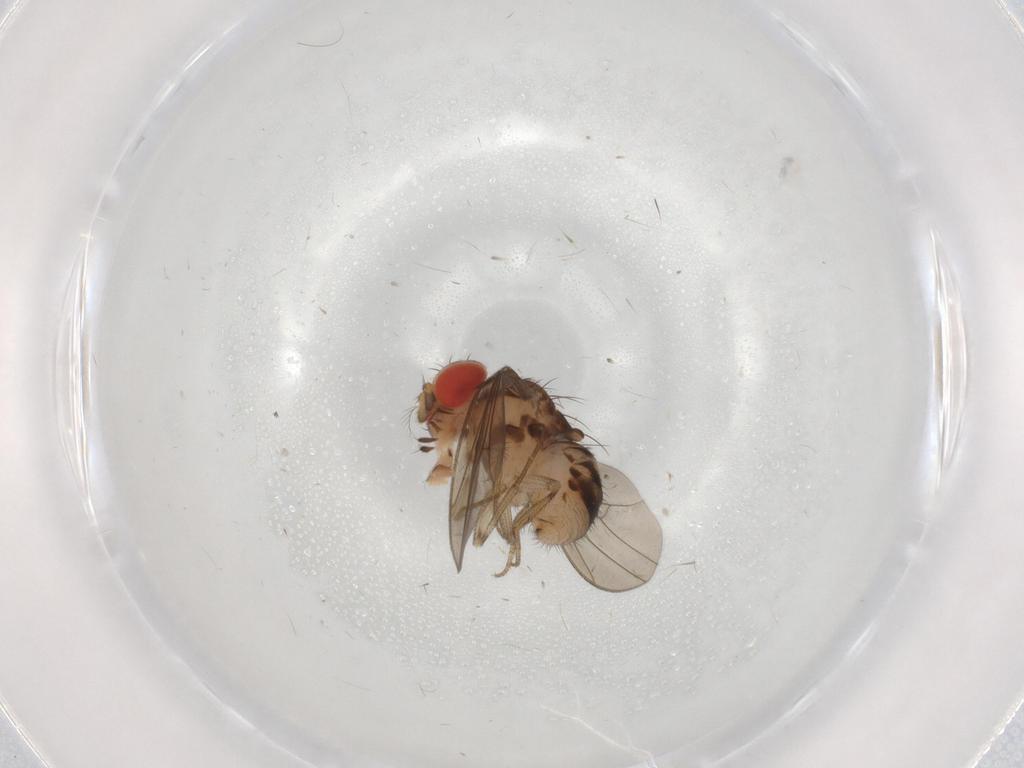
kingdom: Animalia
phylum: Arthropoda
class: Insecta
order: Diptera
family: Drosophilidae
